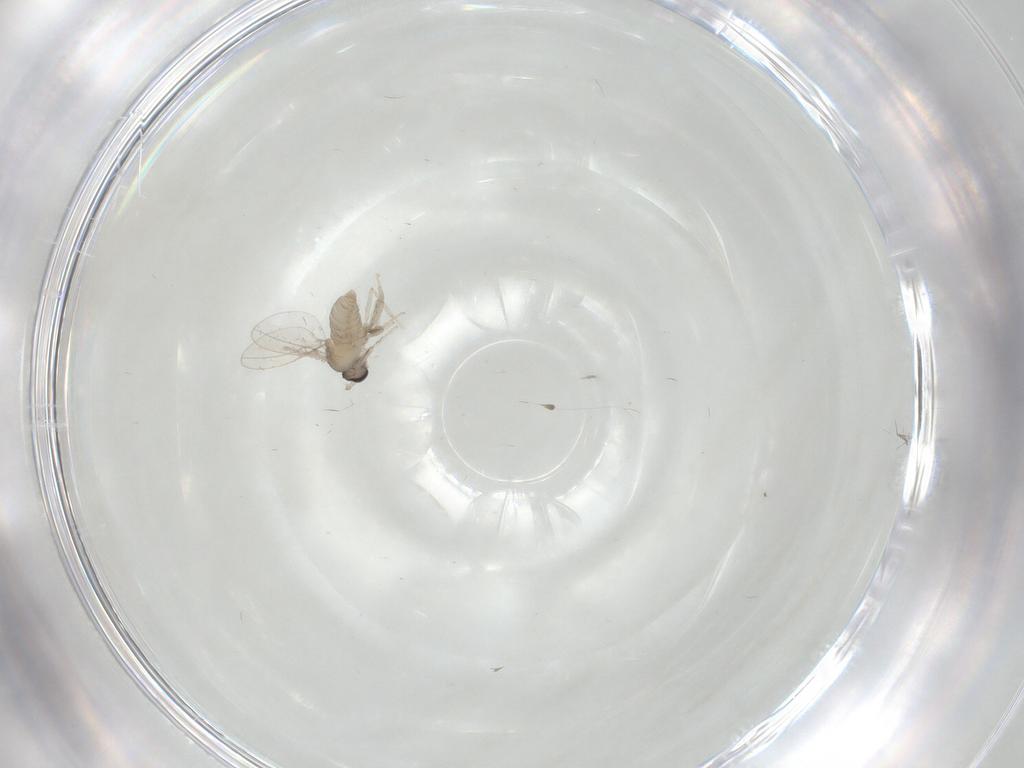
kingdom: Animalia
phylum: Arthropoda
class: Insecta
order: Diptera
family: Cecidomyiidae
